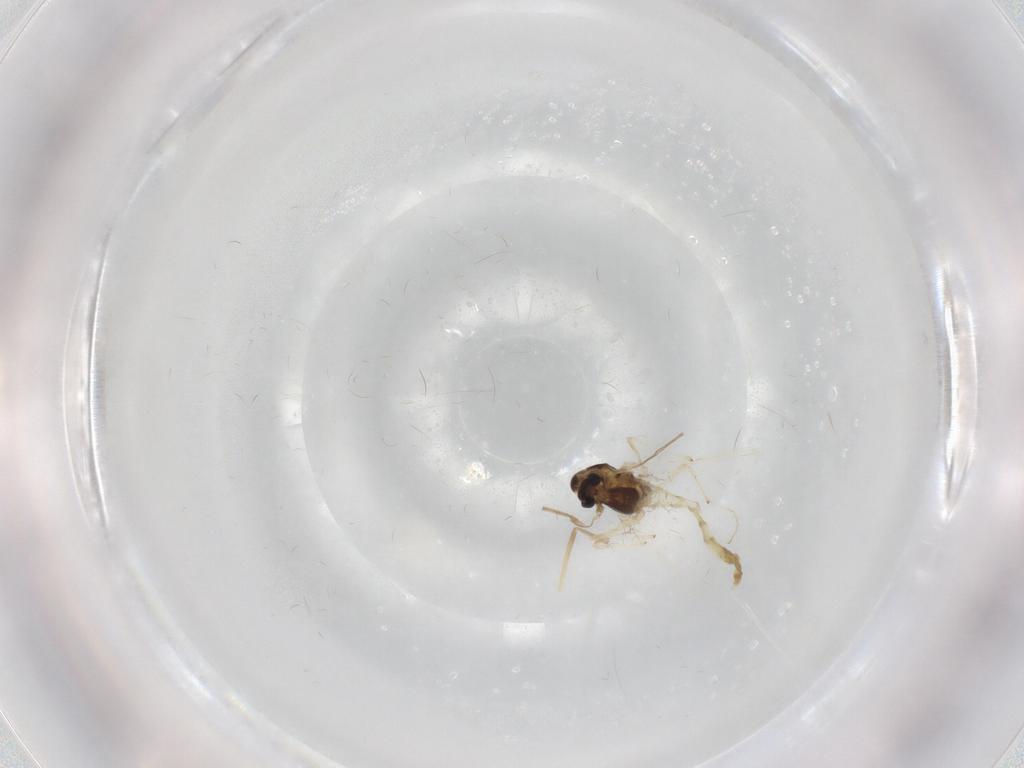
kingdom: Animalia
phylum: Arthropoda
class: Insecta
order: Diptera
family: Chironomidae
